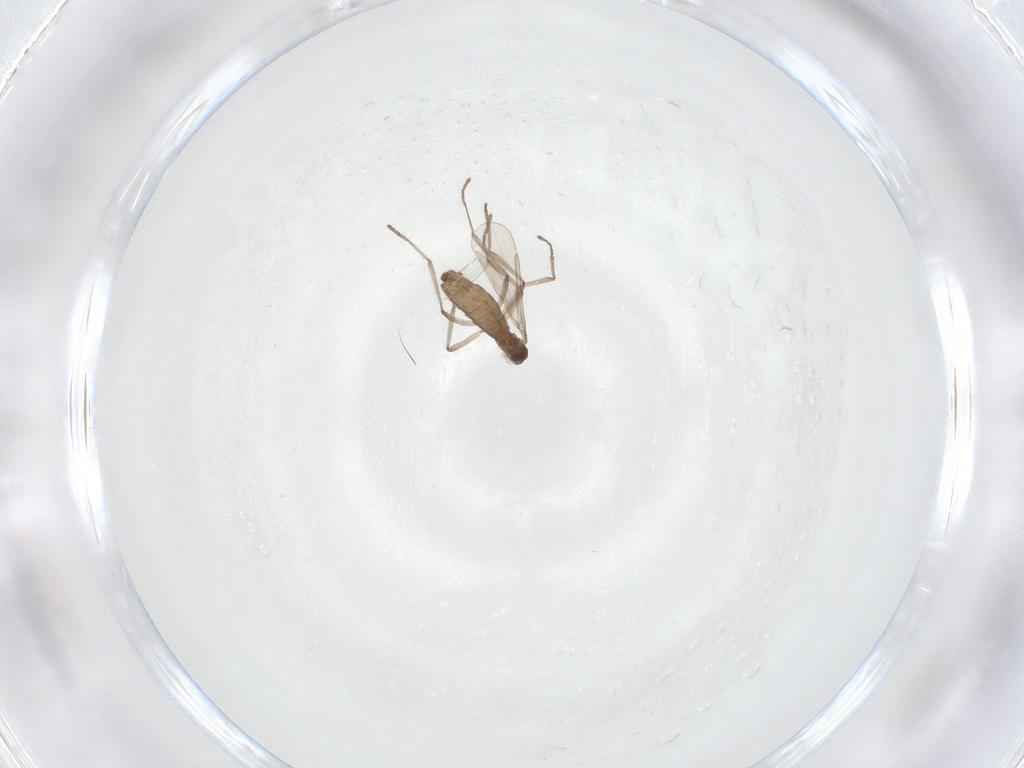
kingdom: Animalia
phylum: Arthropoda
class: Insecta
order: Diptera
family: Cecidomyiidae
